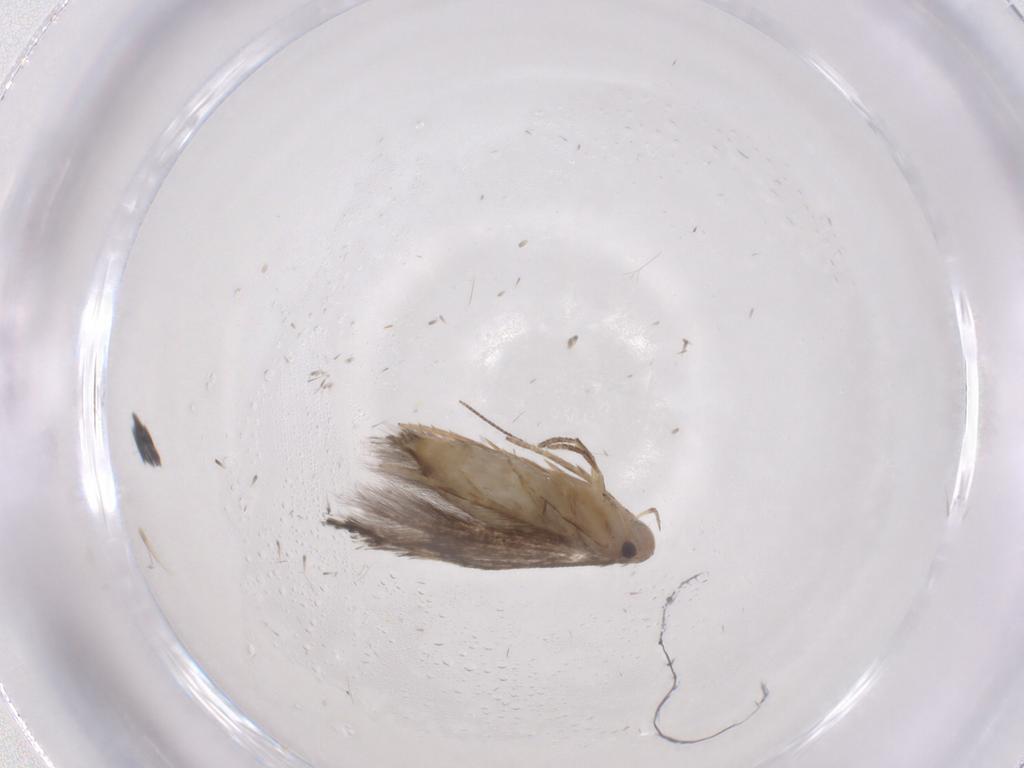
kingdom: Animalia
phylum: Arthropoda
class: Insecta
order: Lepidoptera
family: Elachistidae
